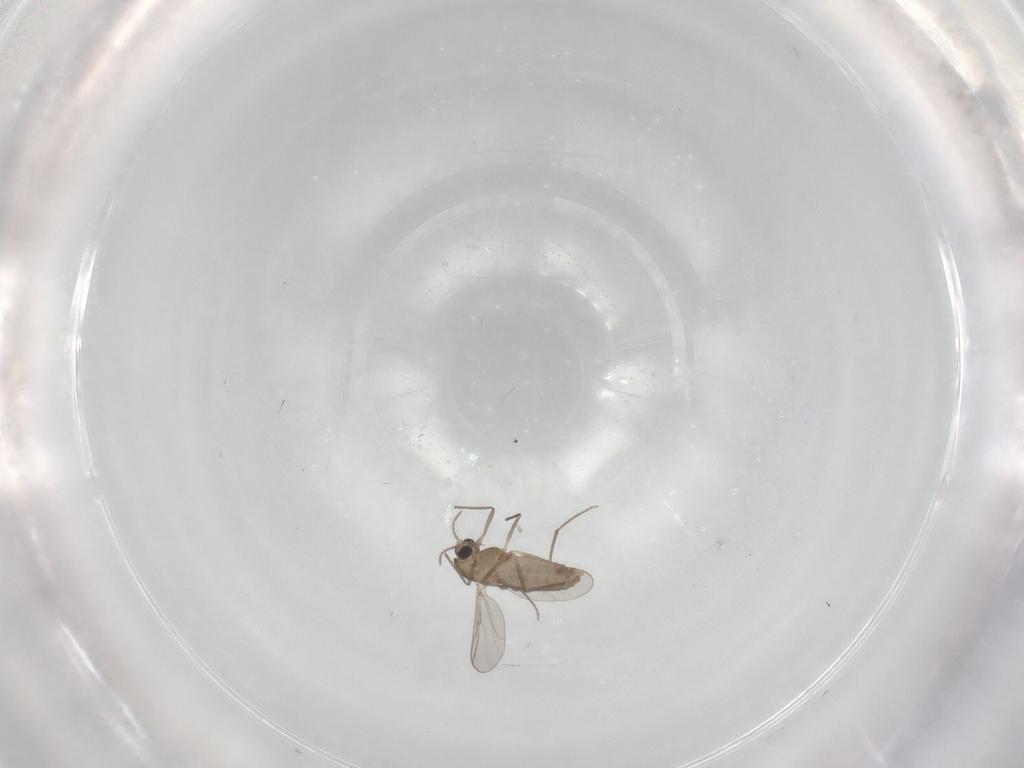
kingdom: Animalia
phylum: Arthropoda
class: Insecta
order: Diptera
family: Chironomidae
